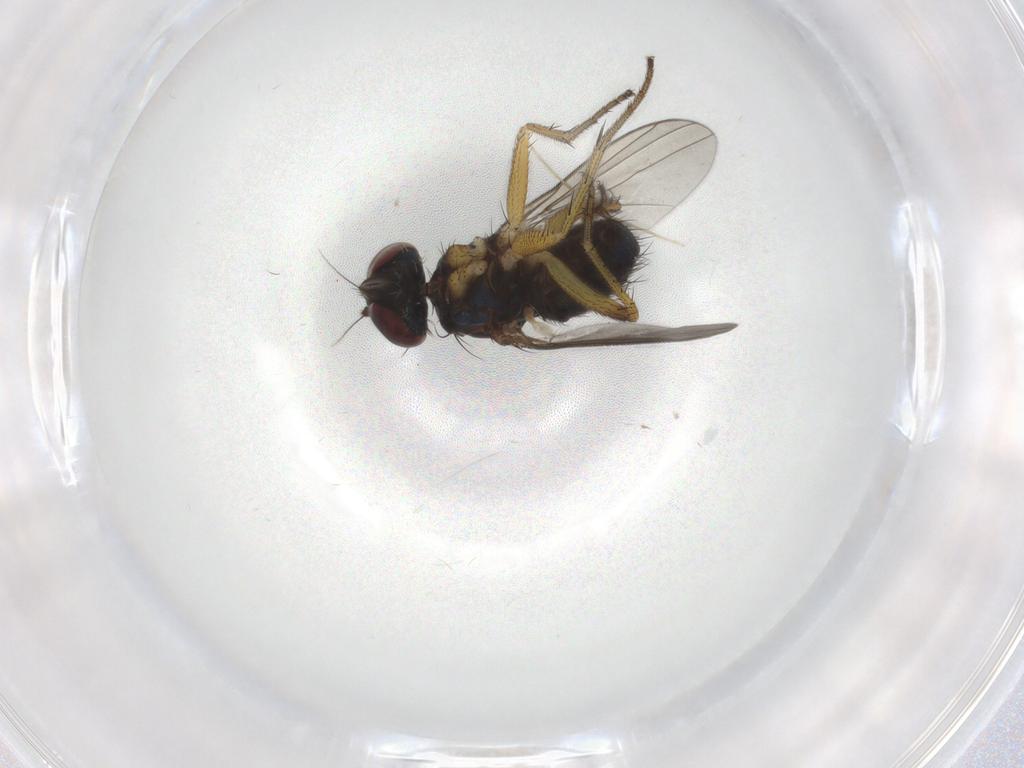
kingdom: Animalia
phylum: Arthropoda
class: Insecta
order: Diptera
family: Dolichopodidae
